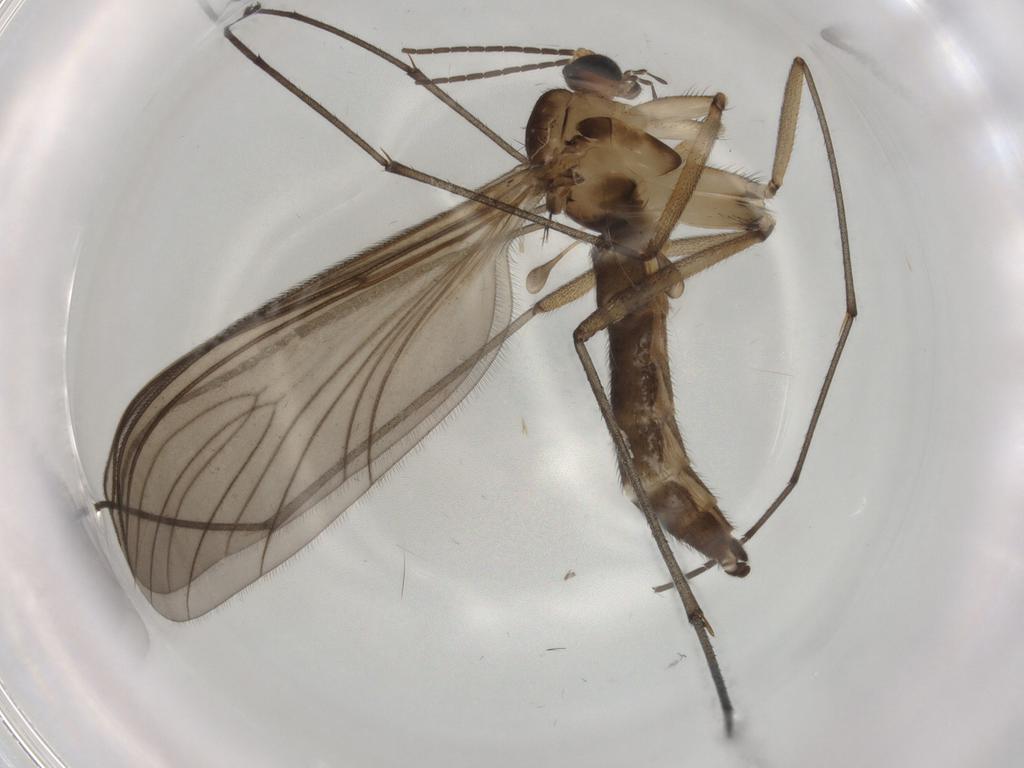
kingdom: Animalia
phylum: Arthropoda
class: Insecta
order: Diptera
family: Sciaridae
